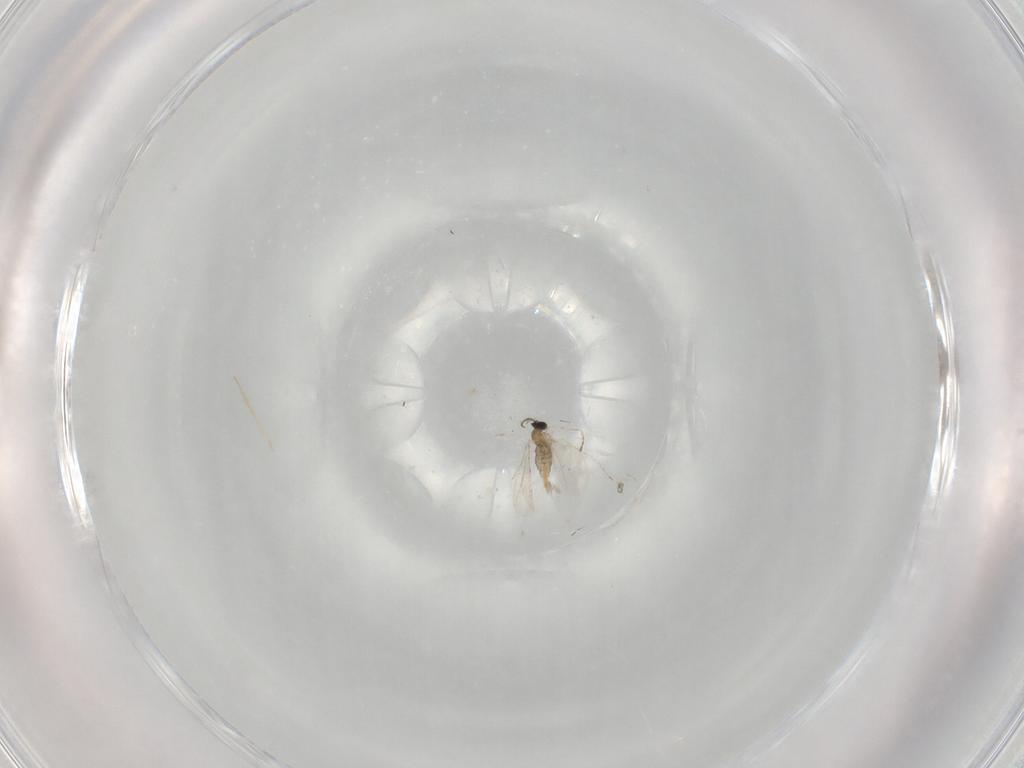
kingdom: Animalia
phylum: Arthropoda
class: Insecta
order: Diptera
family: Cecidomyiidae
